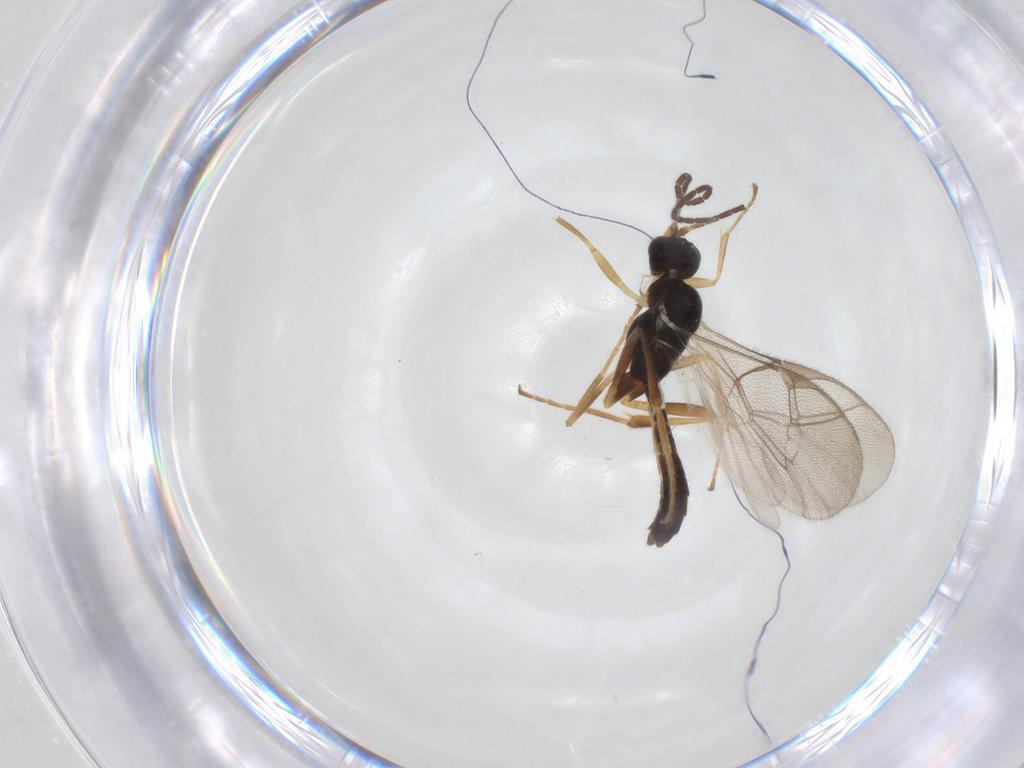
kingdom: Animalia
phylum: Arthropoda
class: Insecta
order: Hymenoptera
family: Ichneumonidae
